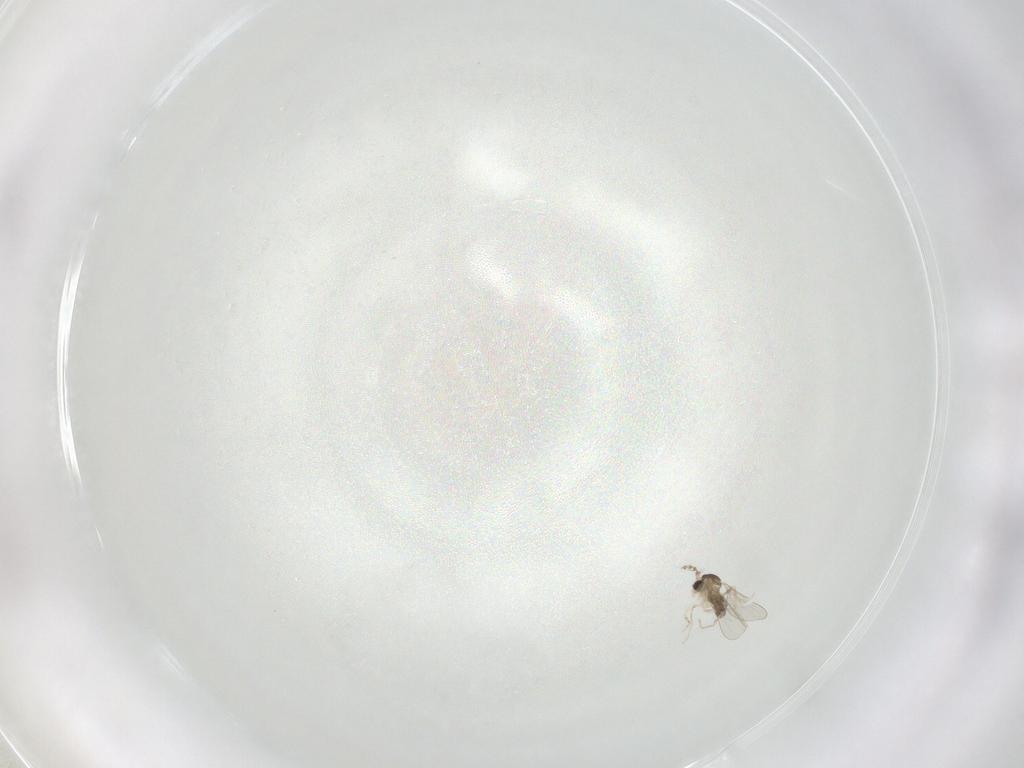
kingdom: Animalia
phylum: Arthropoda
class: Insecta
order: Diptera
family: Cecidomyiidae
